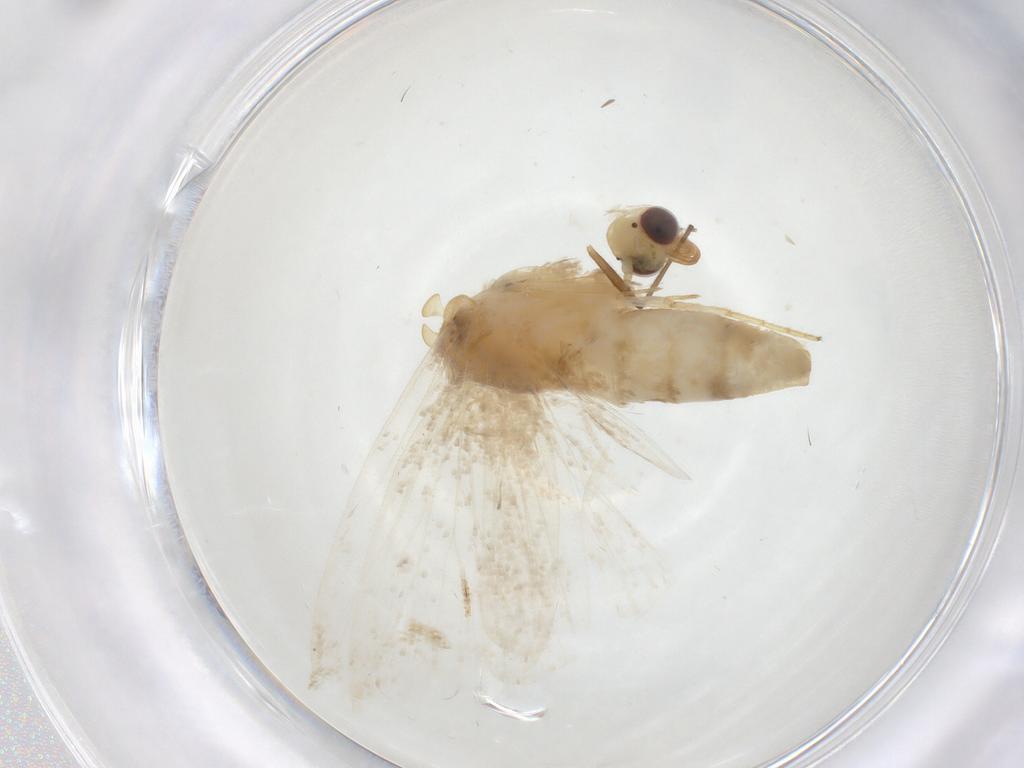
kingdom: Animalia
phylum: Arthropoda
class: Insecta
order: Lepidoptera
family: Erebidae
